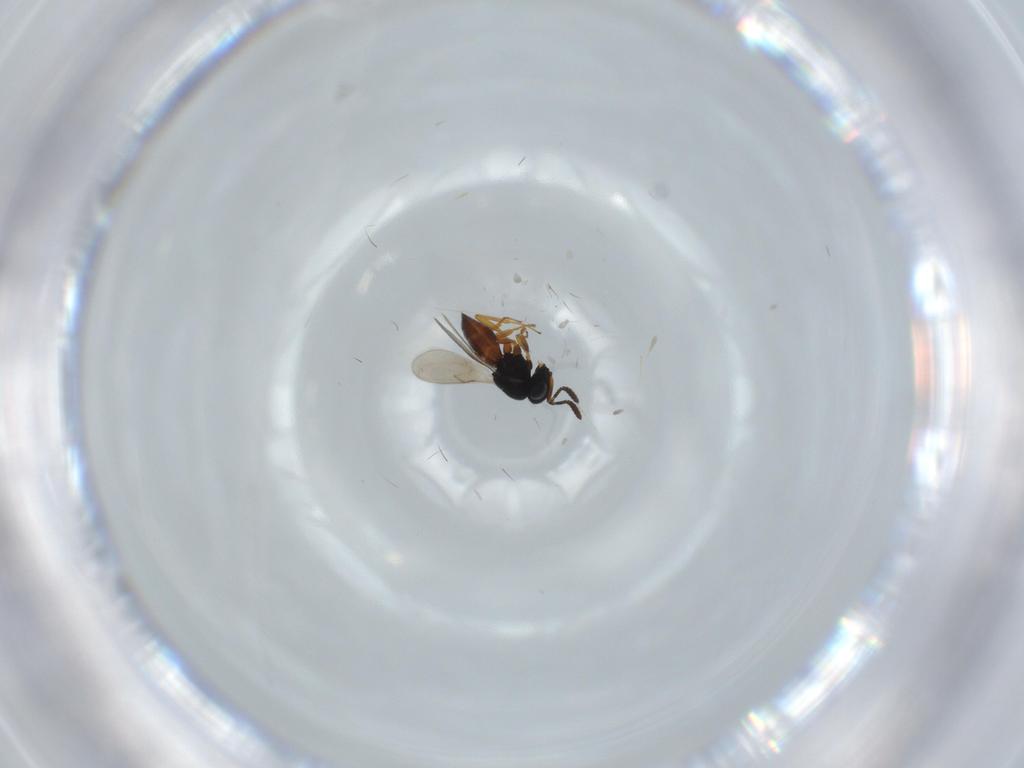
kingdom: Animalia
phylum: Arthropoda
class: Insecta
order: Hymenoptera
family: Scelionidae
